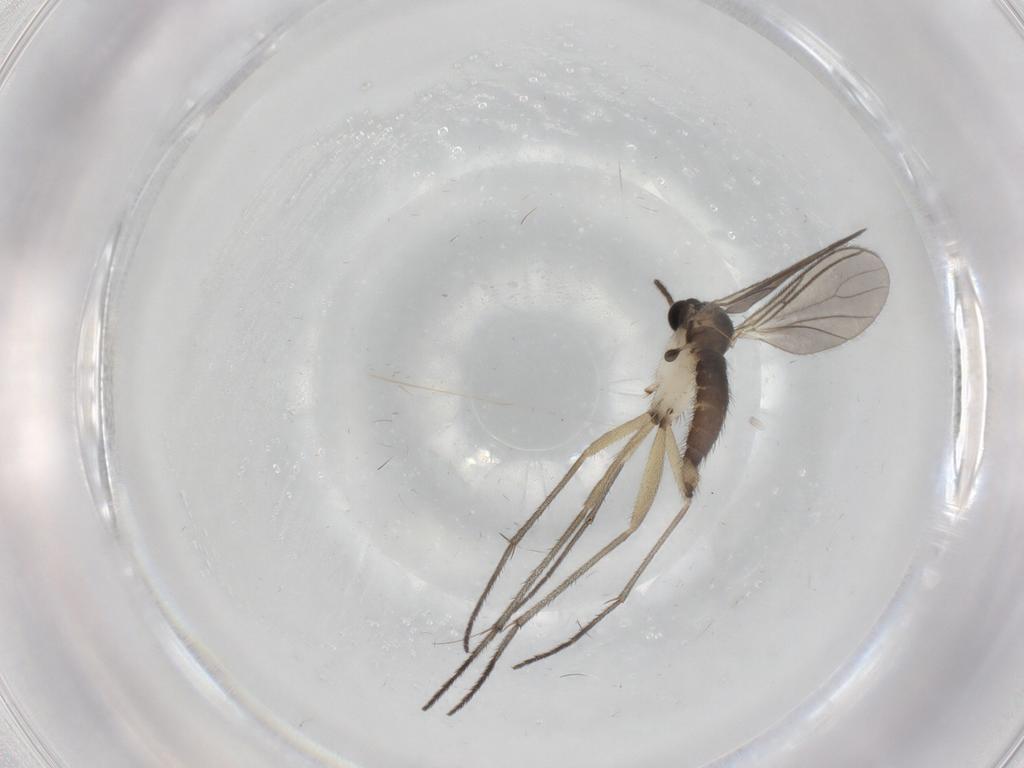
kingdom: Animalia
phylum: Arthropoda
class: Insecta
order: Diptera
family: Sciaridae
